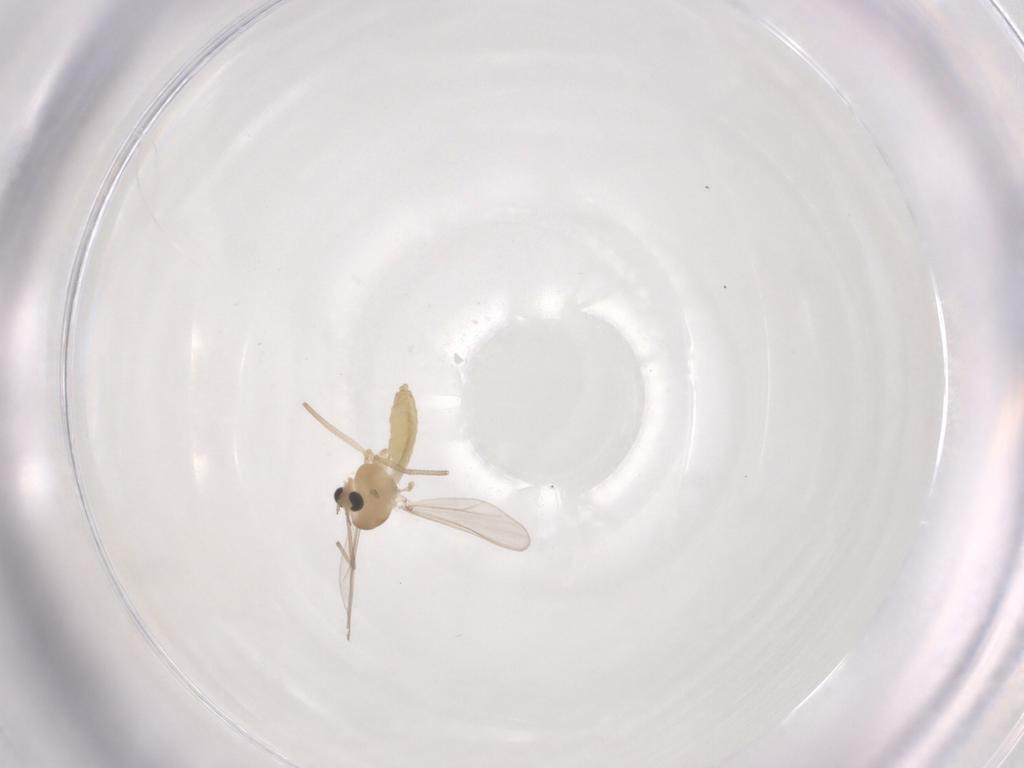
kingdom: Animalia
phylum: Arthropoda
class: Insecta
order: Diptera
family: Chironomidae
